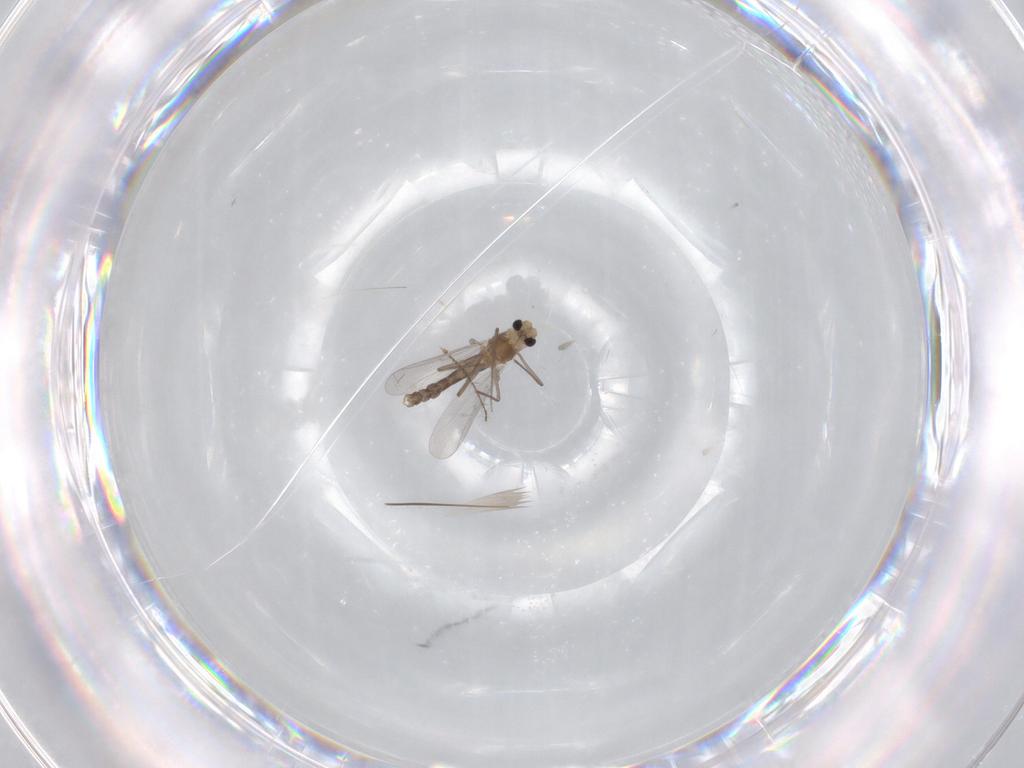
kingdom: Animalia
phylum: Arthropoda
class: Insecta
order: Diptera
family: Chironomidae
